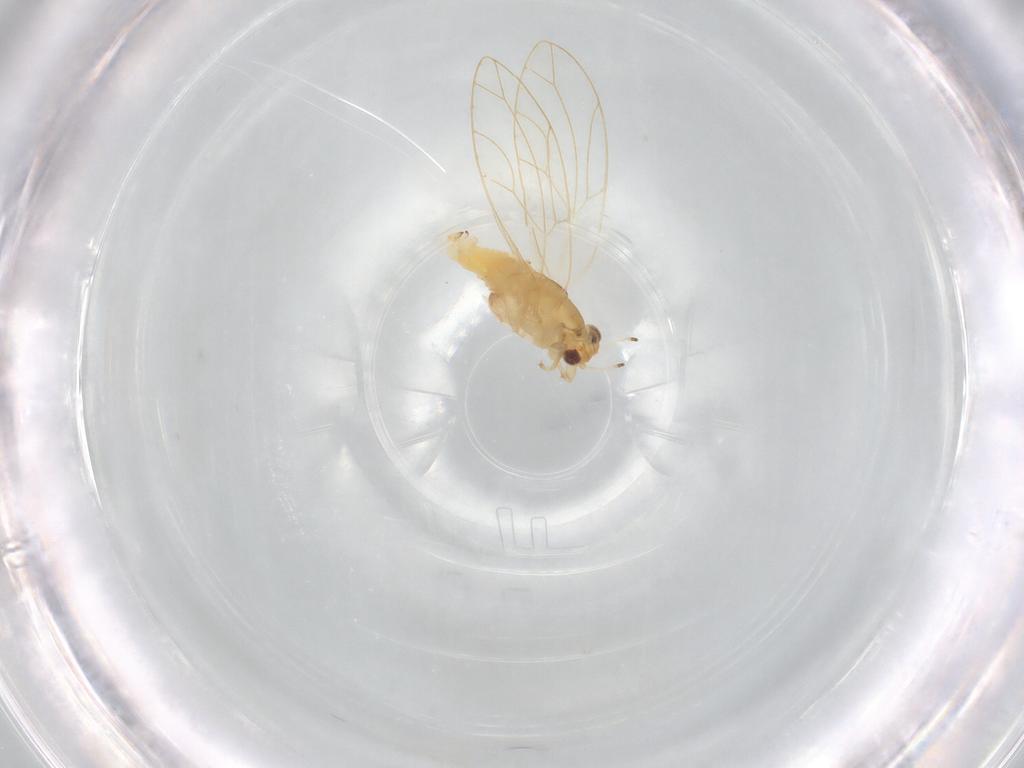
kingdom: Animalia
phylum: Arthropoda
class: Insecta
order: Hemiptera
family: Triozidae
